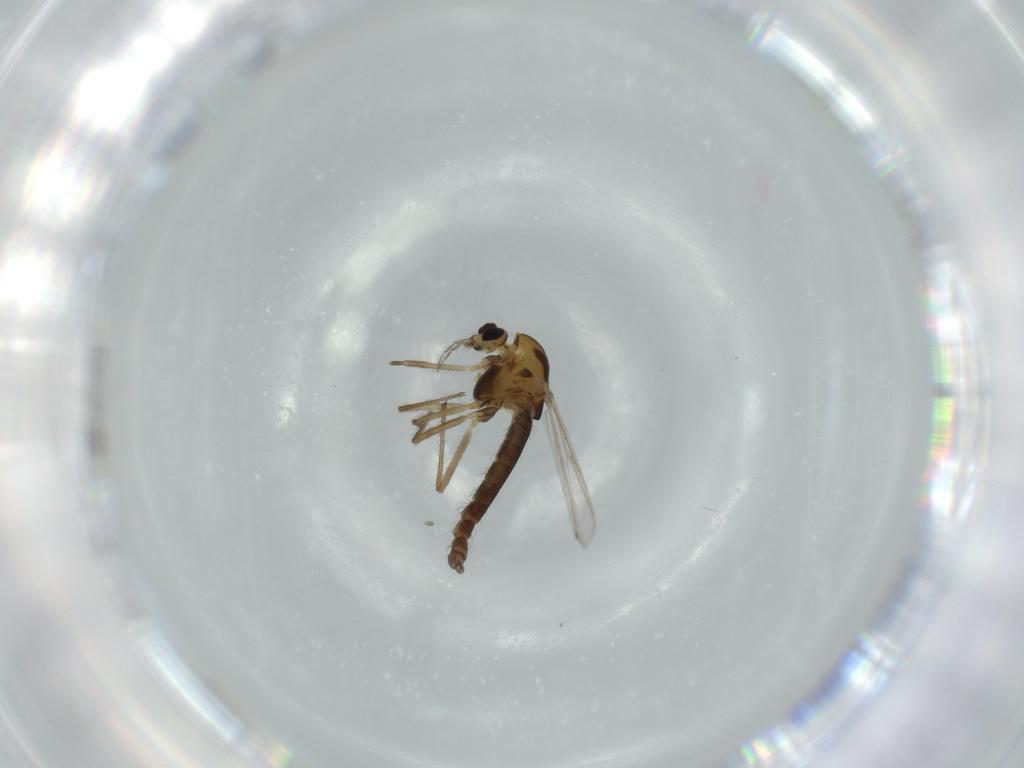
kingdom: Animalia
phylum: Arthropoda
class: Insecta
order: Diptera
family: Chironomidae
